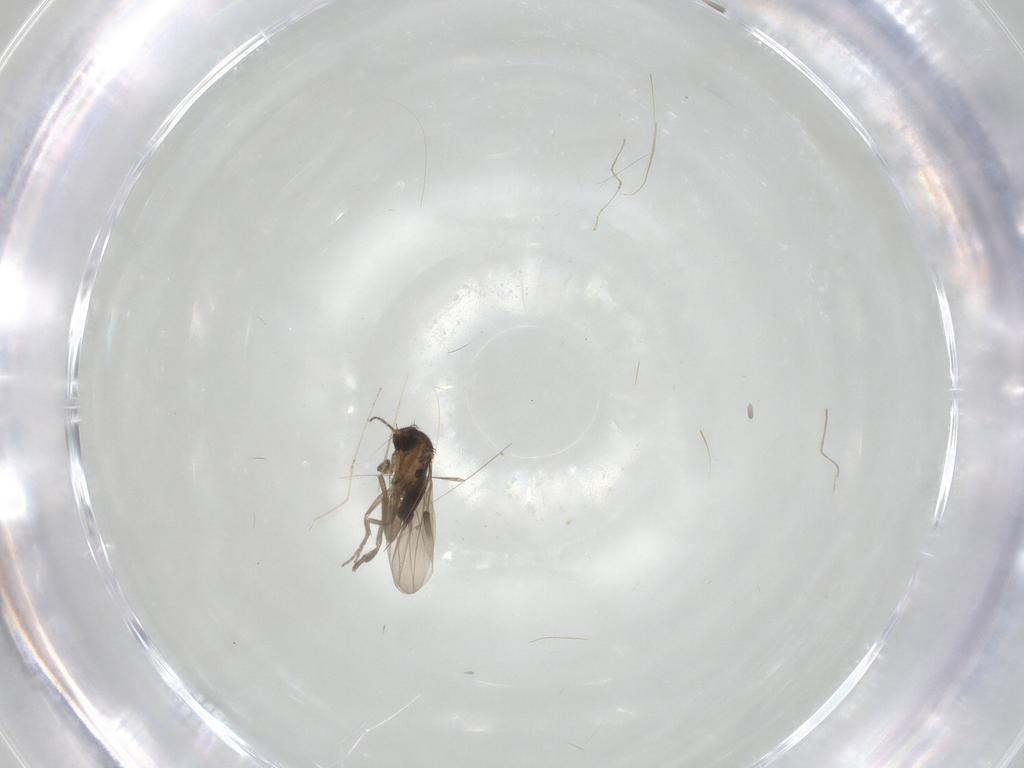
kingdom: Animalia
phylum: Arthropoda
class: Insecta
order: Diptera
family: Phoridae
